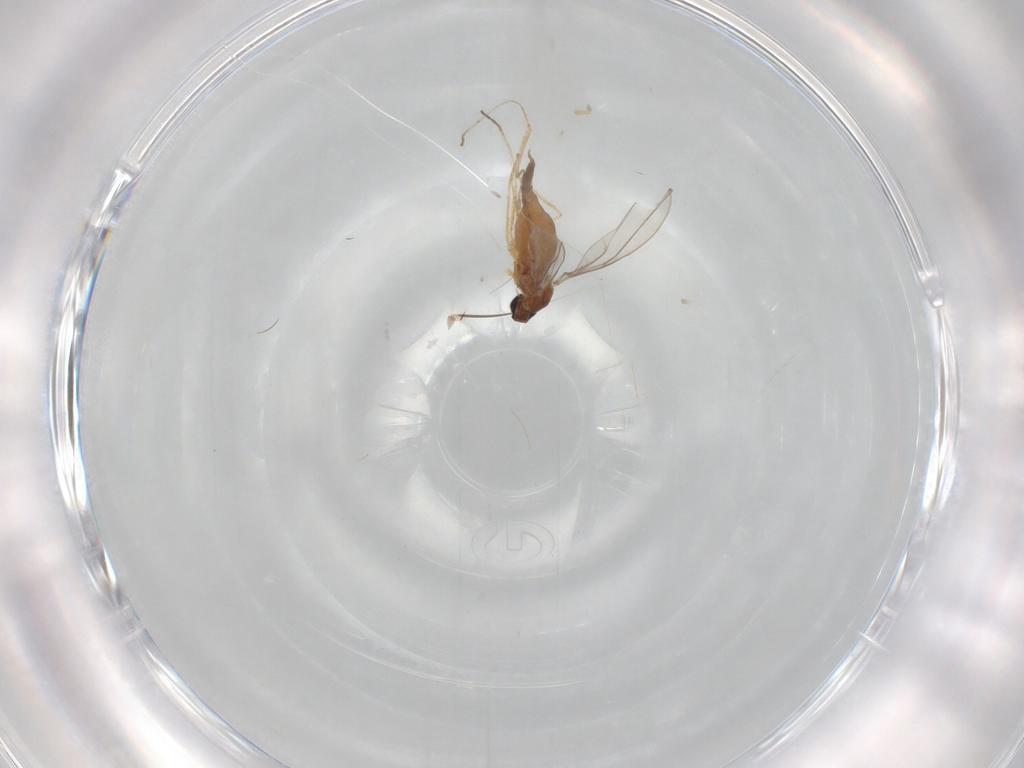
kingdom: Animalia
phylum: Arthropoda
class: Insecta
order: Diptera
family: Cecidomyiidae
